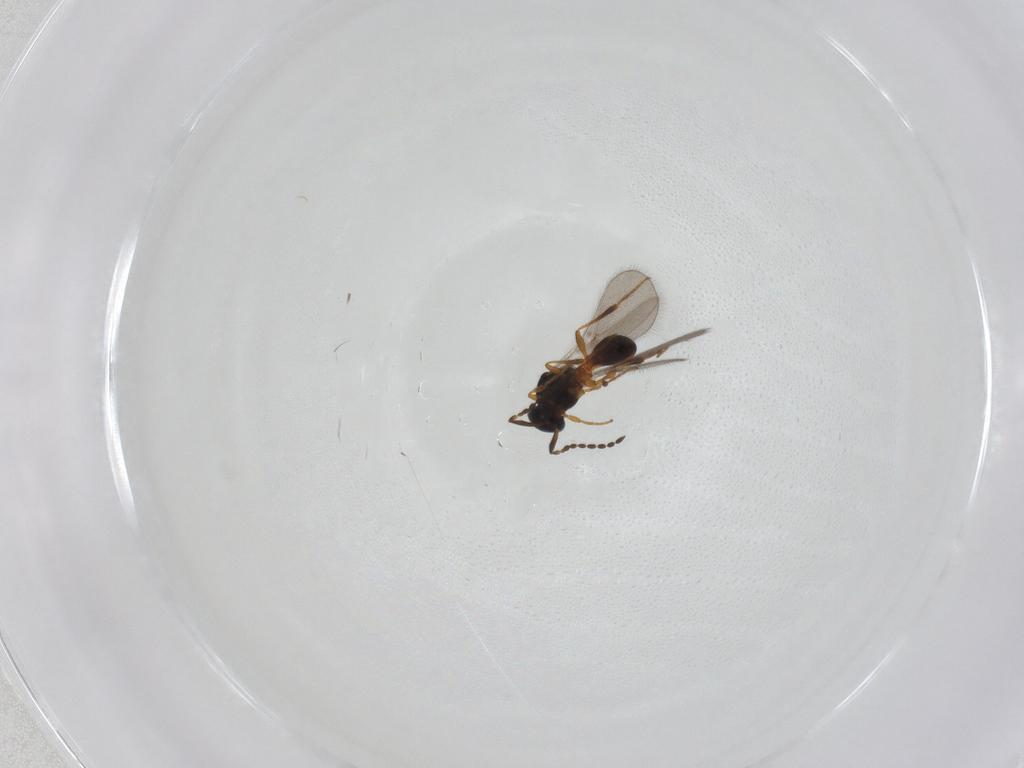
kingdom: Animalia
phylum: Arthropoda
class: Insecta
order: Hymenoptera
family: Platygastridae
